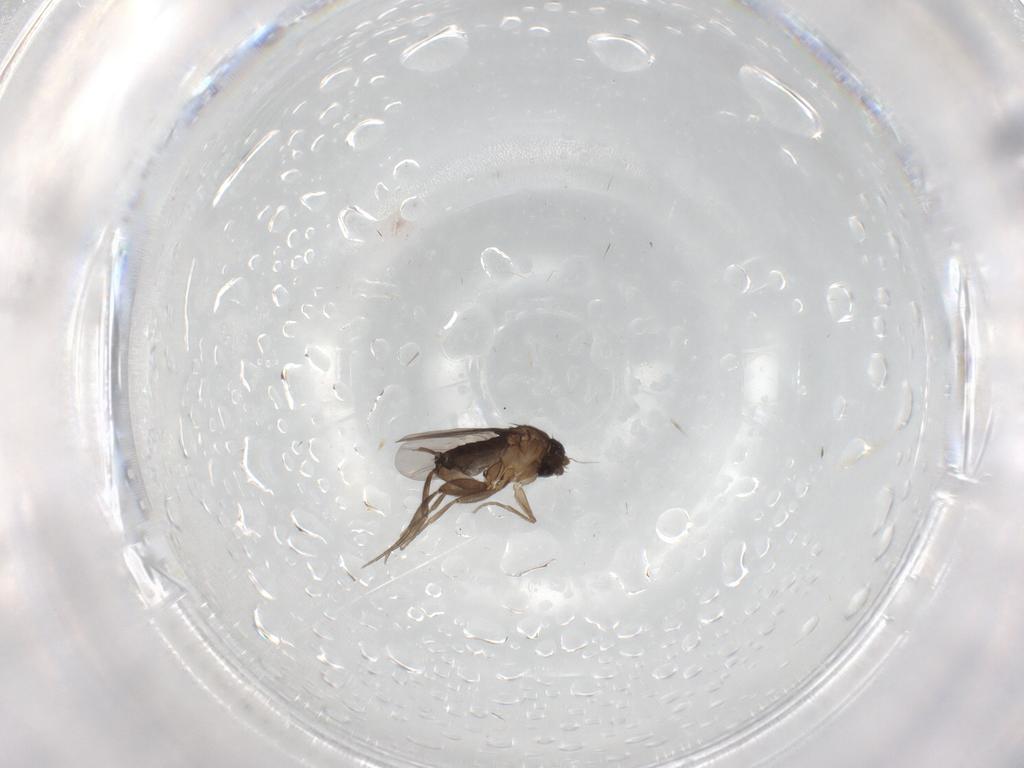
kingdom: Animalia
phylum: Arthropoda
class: Insecta
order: Diptera
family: Phoridae
